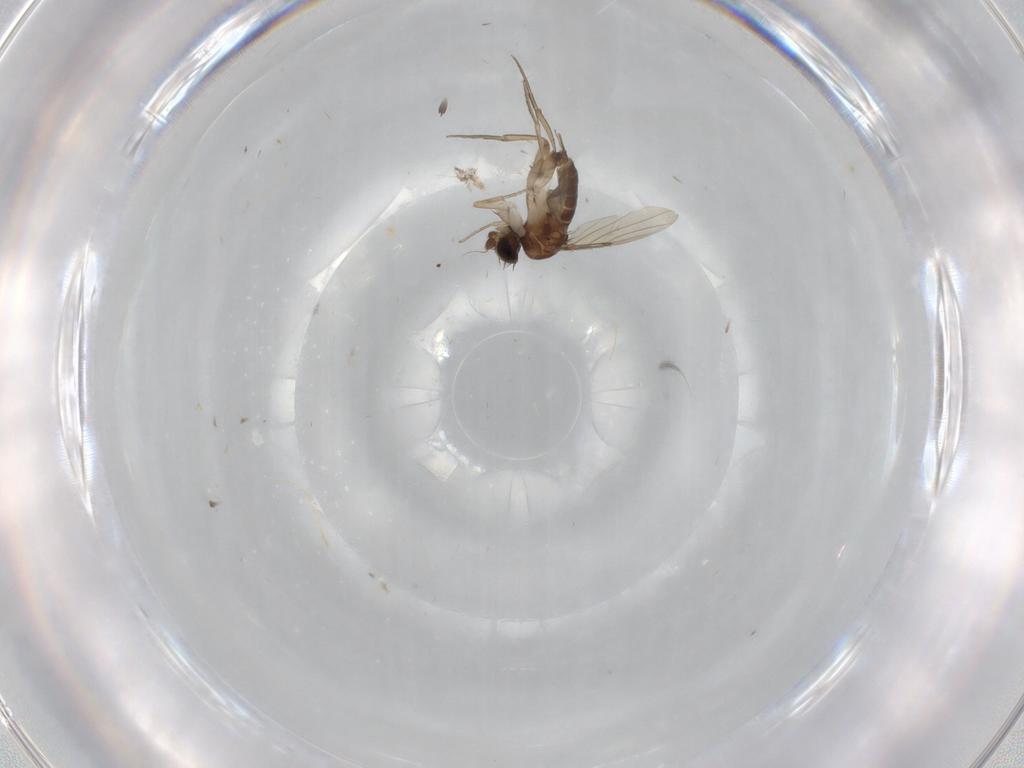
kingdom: Animalia
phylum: Arthropoda
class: Insecta
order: Diptera
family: Phoridae
